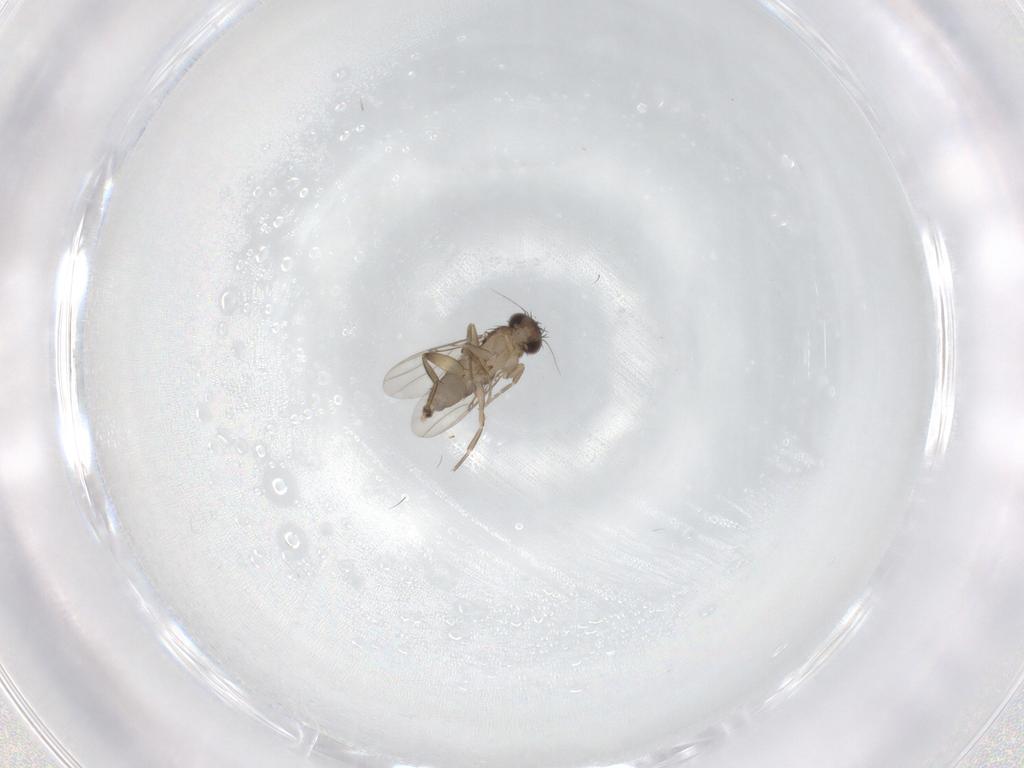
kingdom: Animalia
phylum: Arthropoda
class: Insecta
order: Diptera
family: Phoridae
